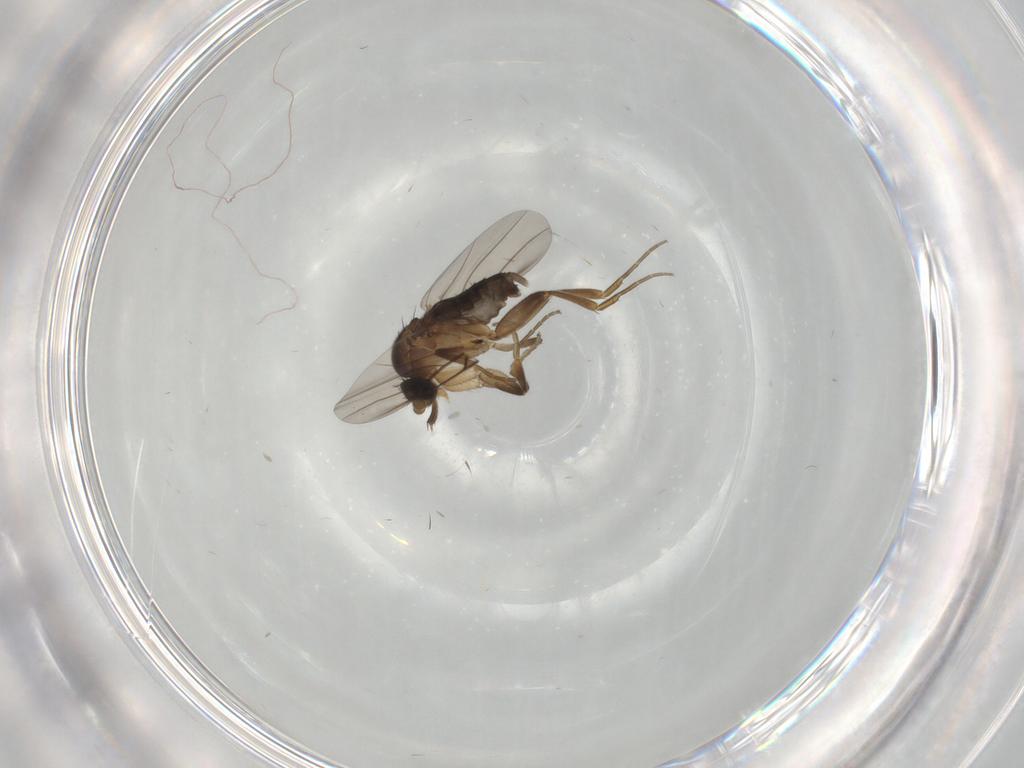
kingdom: Animalia
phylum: Arthropoda
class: Insecta
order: Diptera
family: Phoridae
